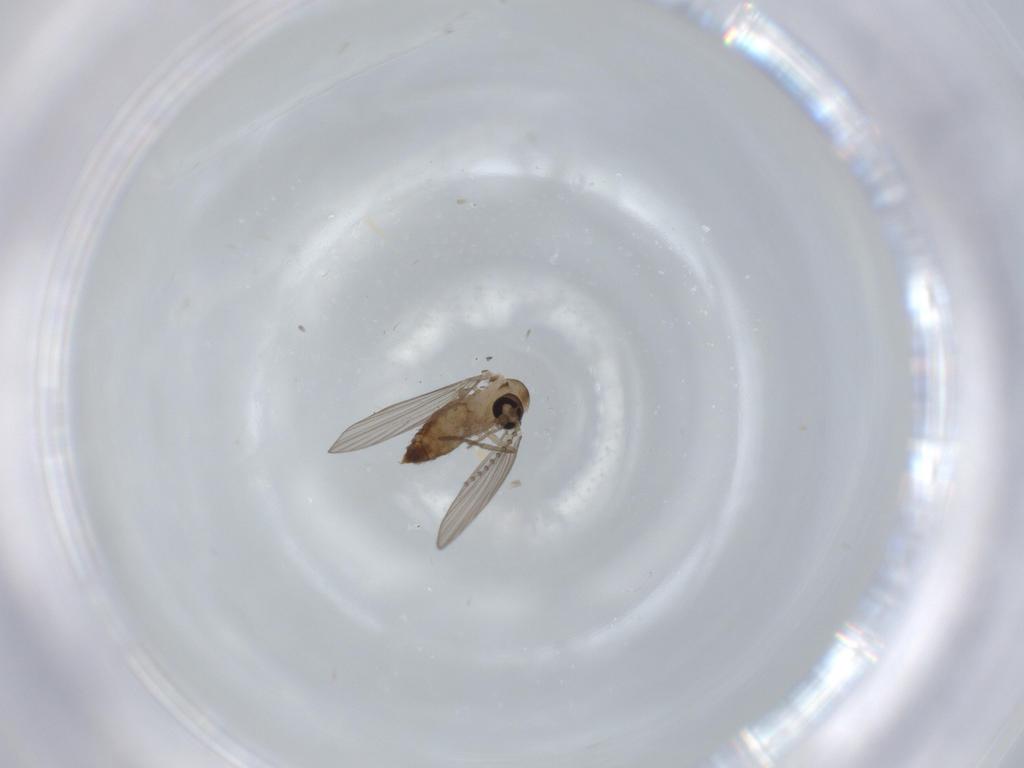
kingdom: Animalia
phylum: Arthropoda
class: Insecta
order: Diptera
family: Psychodidae
